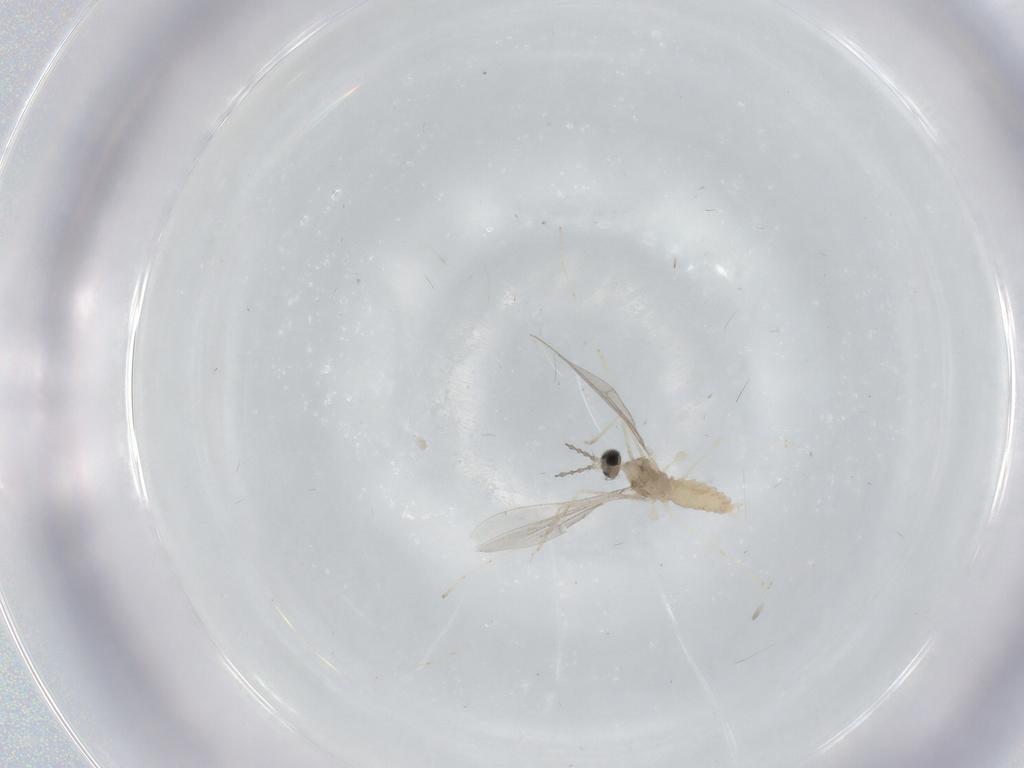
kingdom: Animalia
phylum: Arthropoda
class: Insecta
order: Diptera
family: Cecidomyiidae
